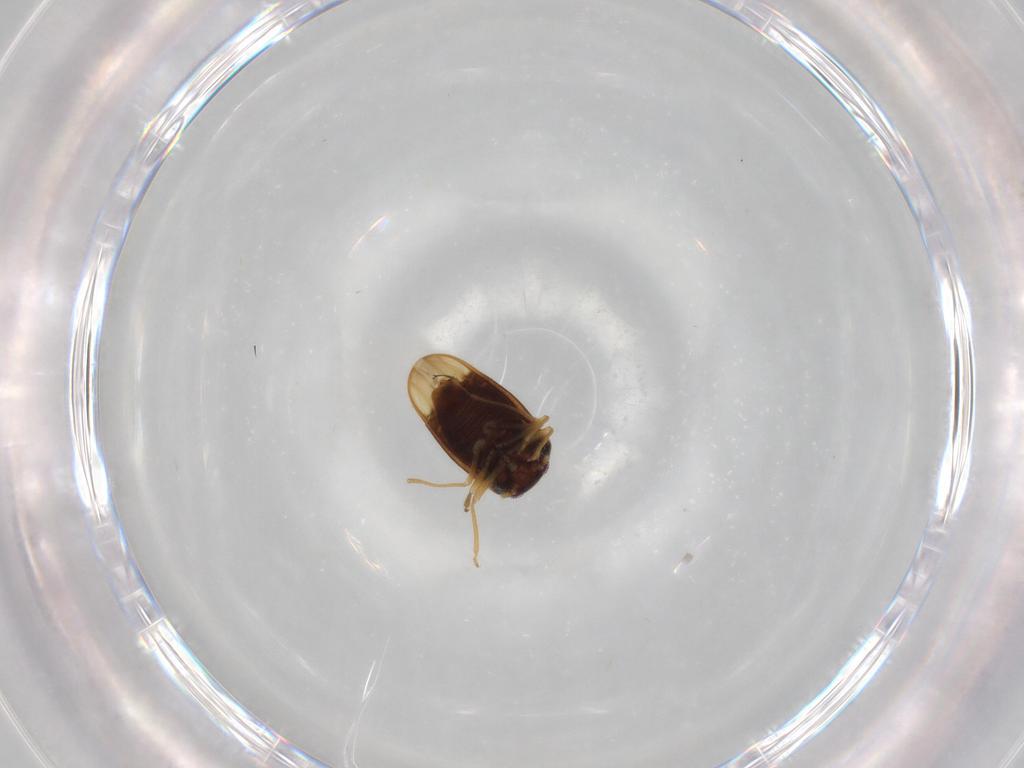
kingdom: Animalia
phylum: Arthropoda
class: Insecta
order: Hemiptera
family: Schizopteridae
